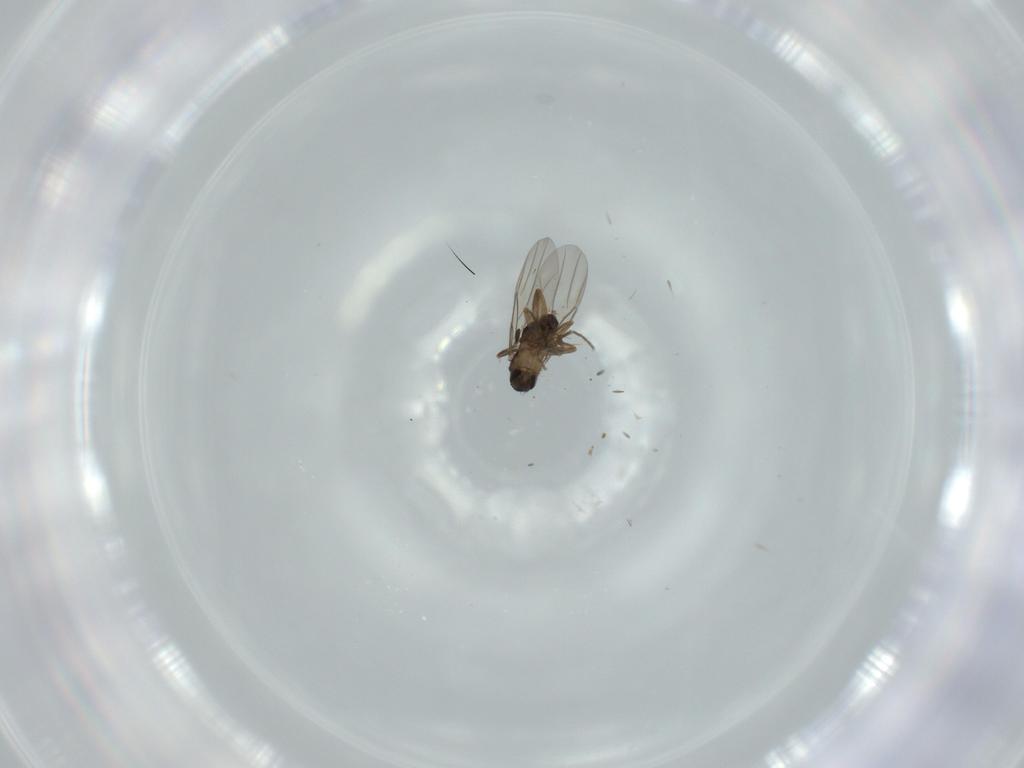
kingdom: Animalia
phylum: Arthropoda
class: Insecta
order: Diptera
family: Phoridae
